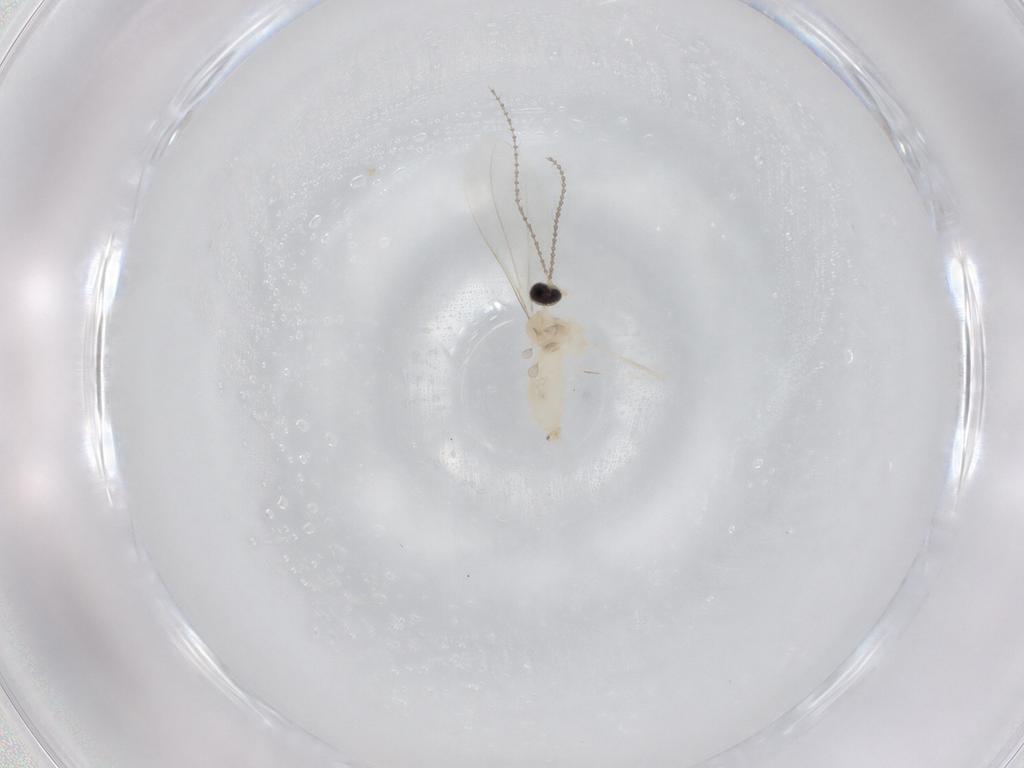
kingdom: Animalia
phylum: Arthropoda
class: Insecta
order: Diptera
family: Cecidomyiidae
